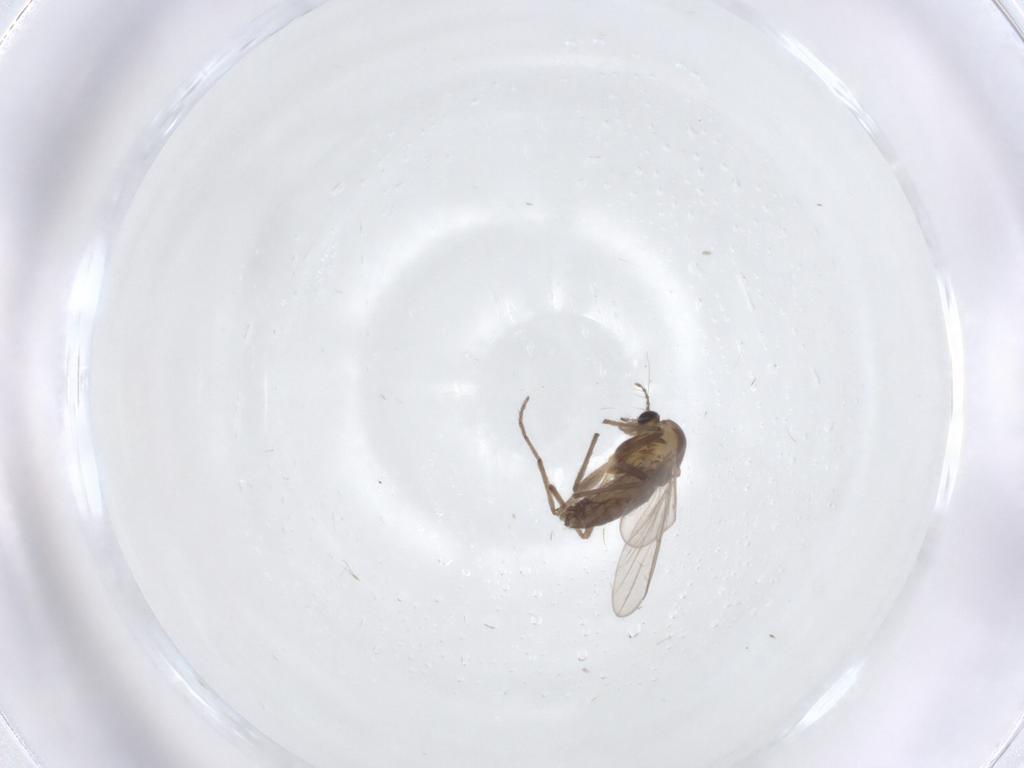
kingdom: Animalia
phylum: Arthropoda
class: Insecta
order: Diptera
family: Chironomidae
